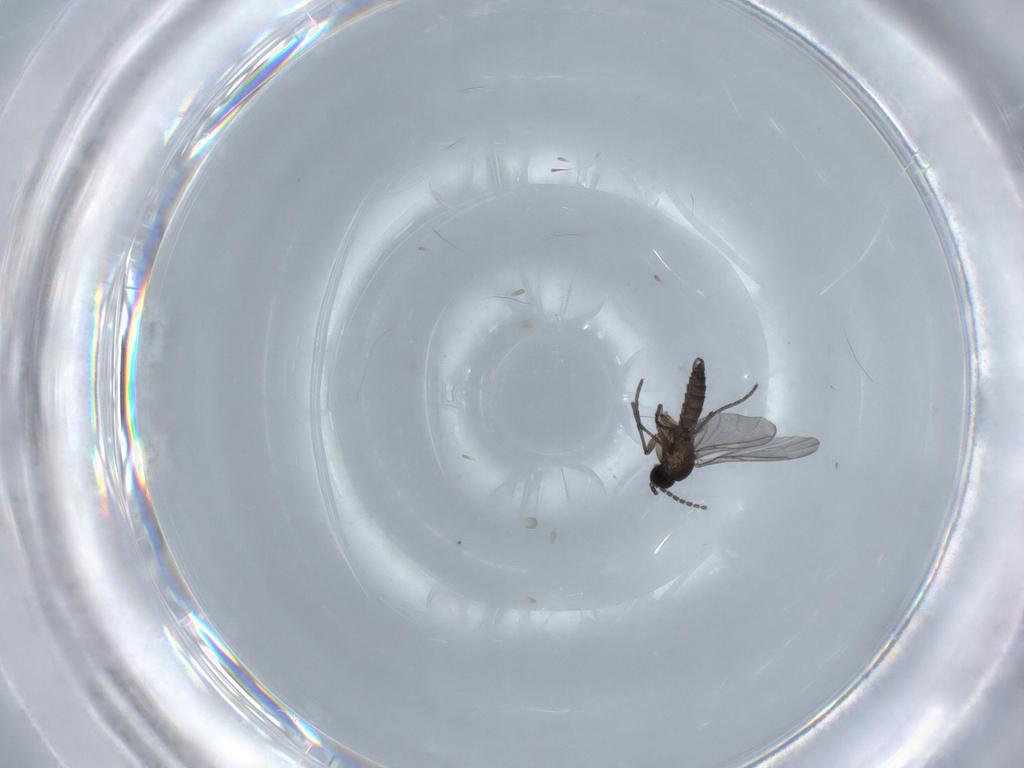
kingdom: Animalia
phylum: Arthropoda
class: Insecta
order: Diptera
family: Sciaridae
